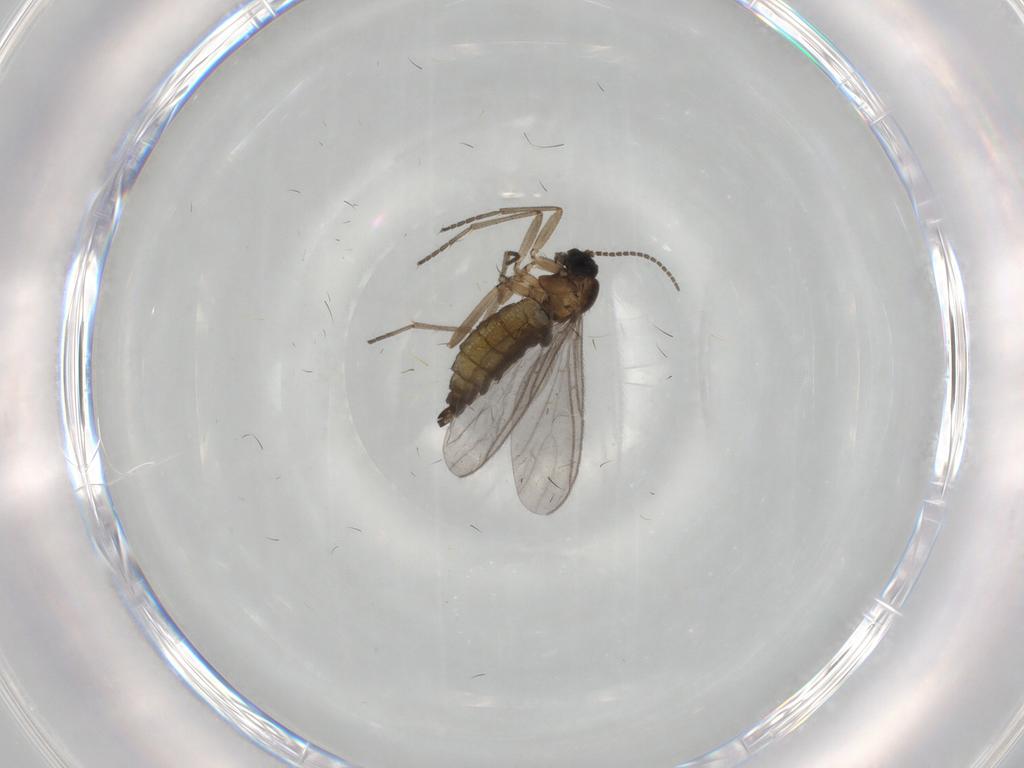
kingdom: Animalia
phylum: Arthropoda
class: Insecta
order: Diptera
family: Sciaridae
